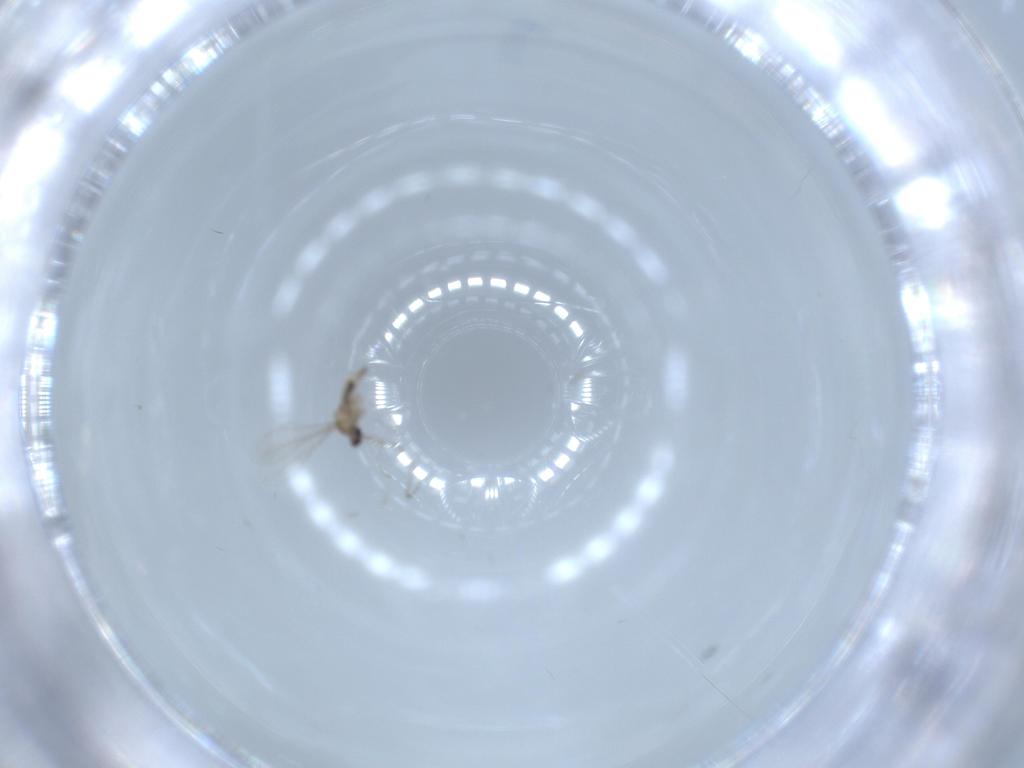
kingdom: Animalia
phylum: Arthropoda
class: Insecta
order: Diptera
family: Cecidomyiidae
